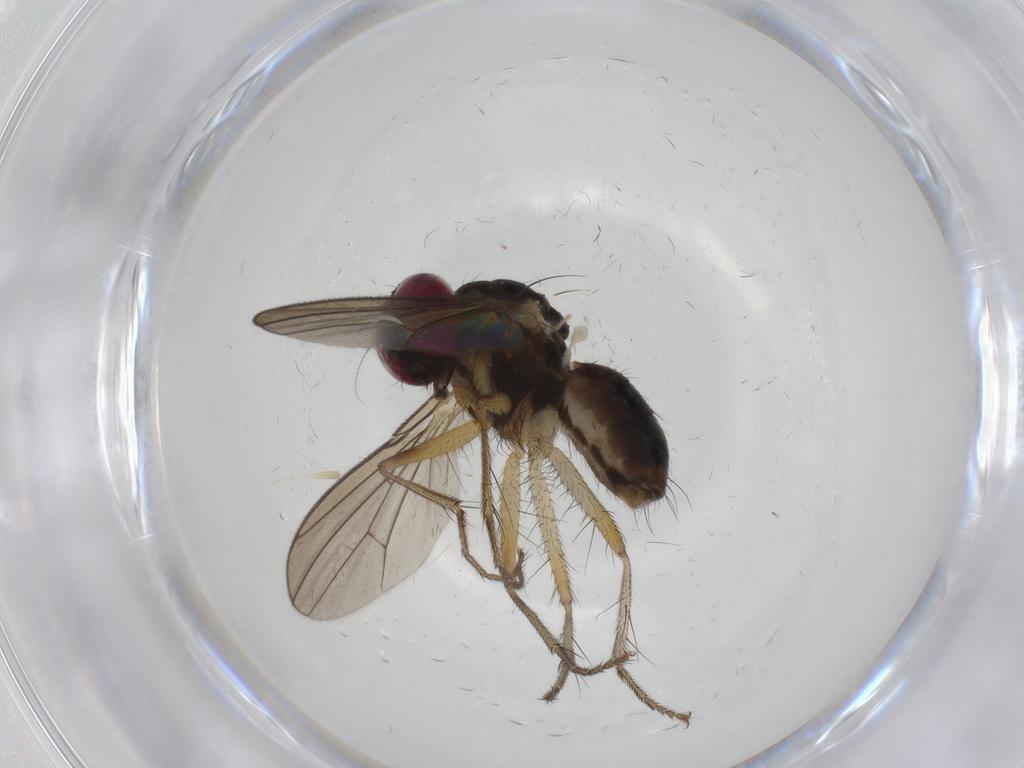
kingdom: Animalia
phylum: Arthropoda
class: Insecta
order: Diptera
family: Anthomyiidae
